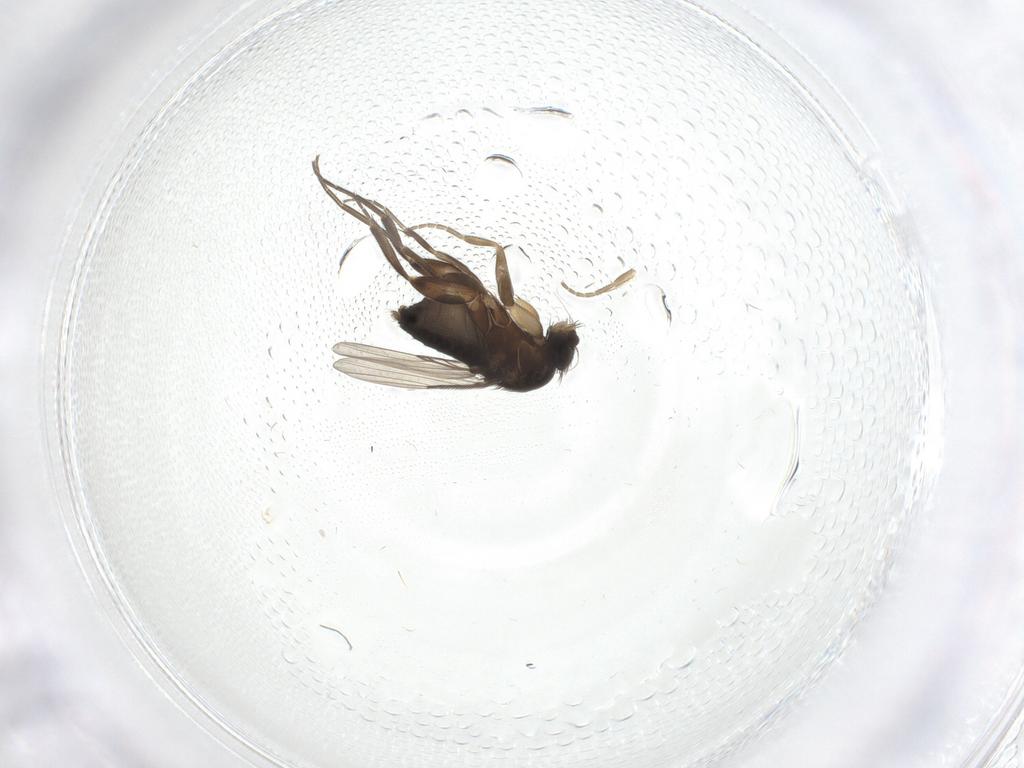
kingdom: Animalia
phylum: Arthropoda
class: Insecta
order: Diptera
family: Phoridae
